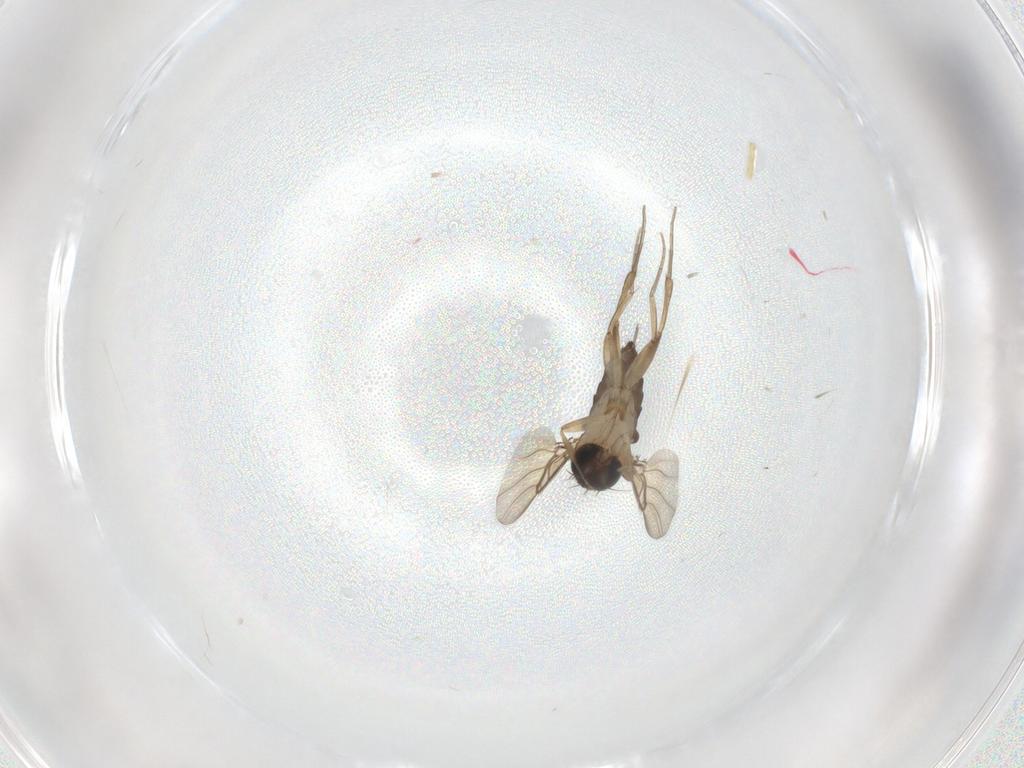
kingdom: Animalia
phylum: Arthropoda
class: Insecta
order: Diptera
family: Phoridae
